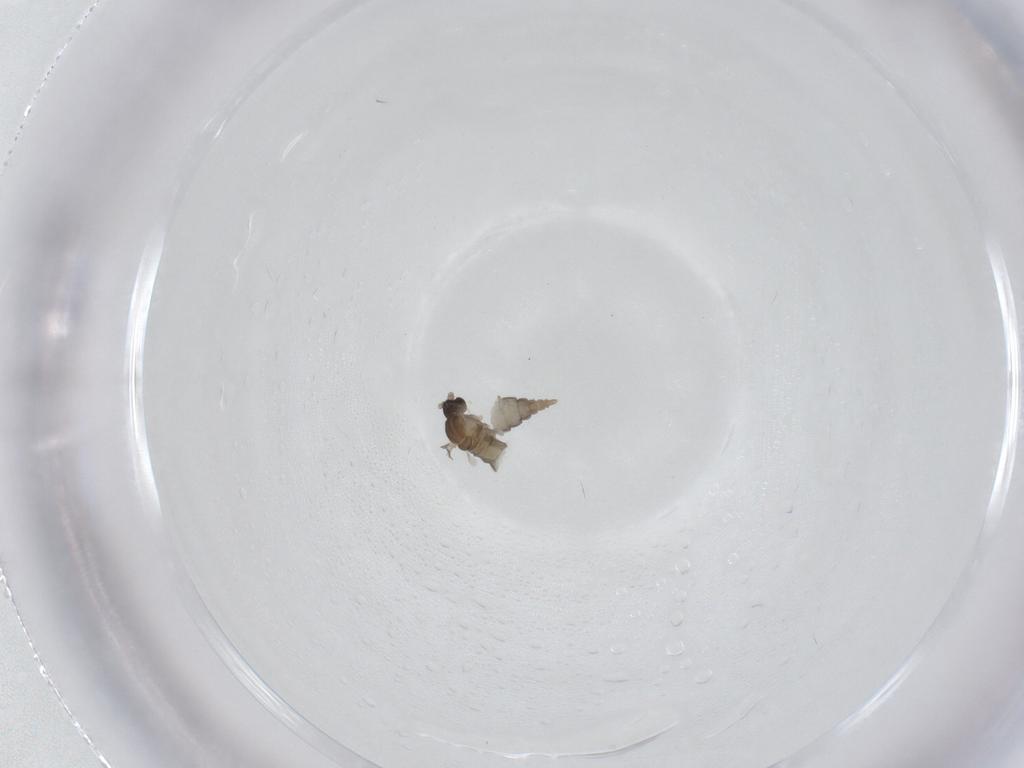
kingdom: Animalia
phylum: Arthropoda
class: Insecta
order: Diptera
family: Cecidomyiidae
